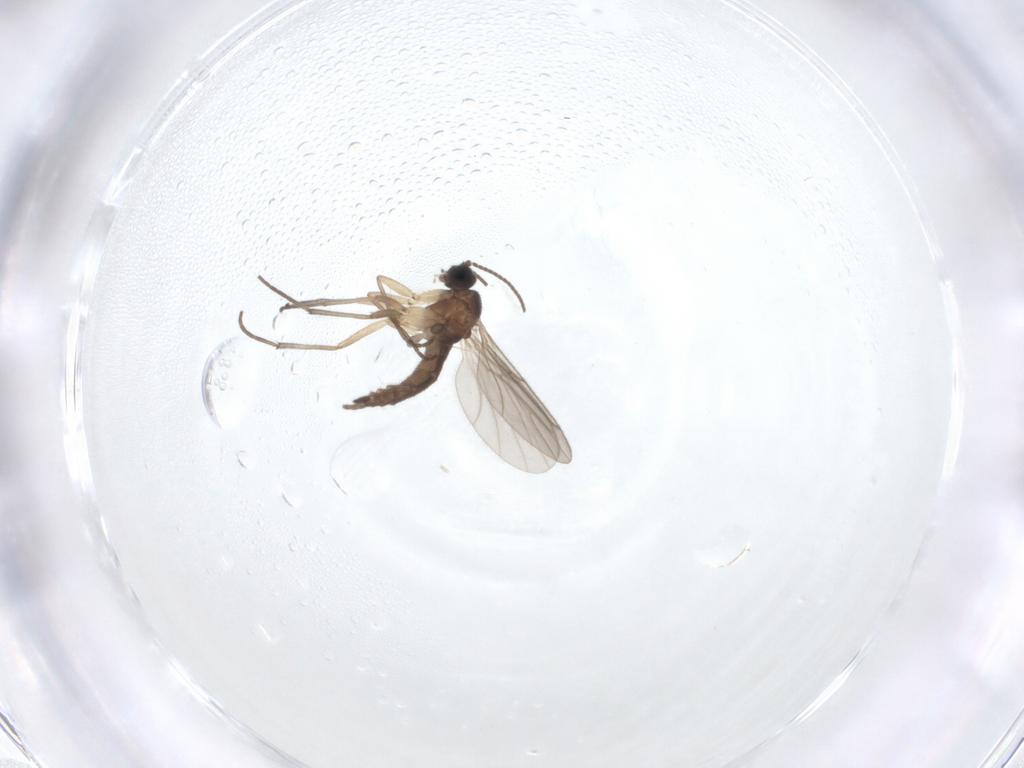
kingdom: Animalia
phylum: Arthropoda
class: Insecta
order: Diptera
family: Sciaridae
